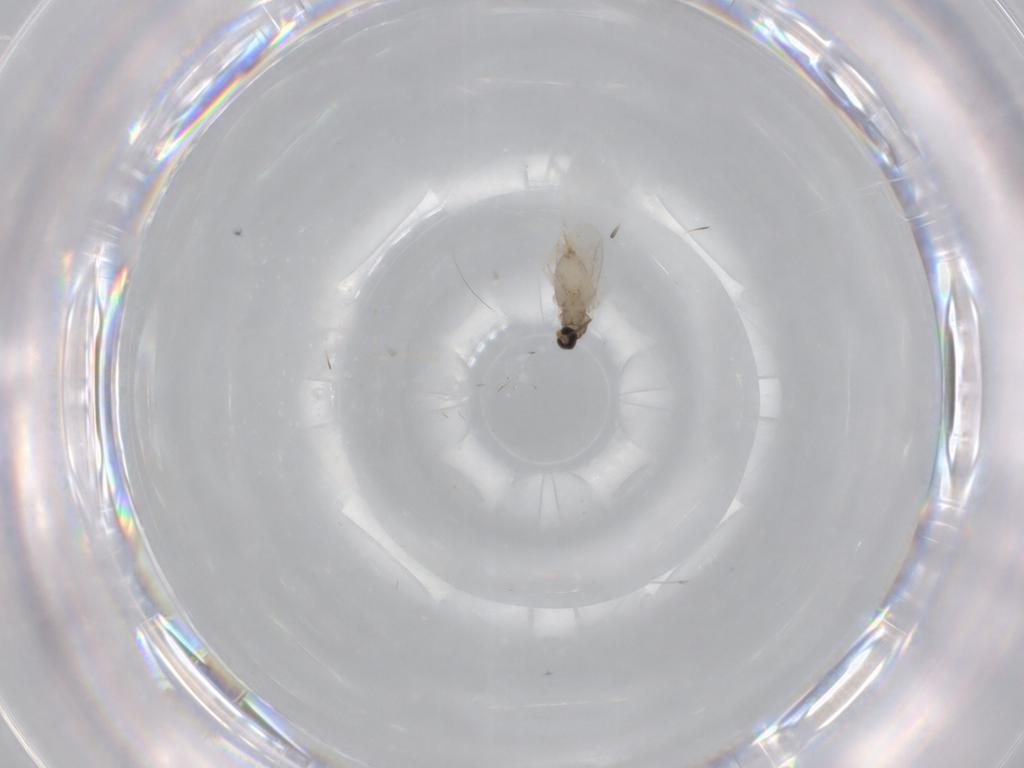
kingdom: Animalia
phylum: Arthropoda
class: Insecta
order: Diptera
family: Cecidomyiidae
